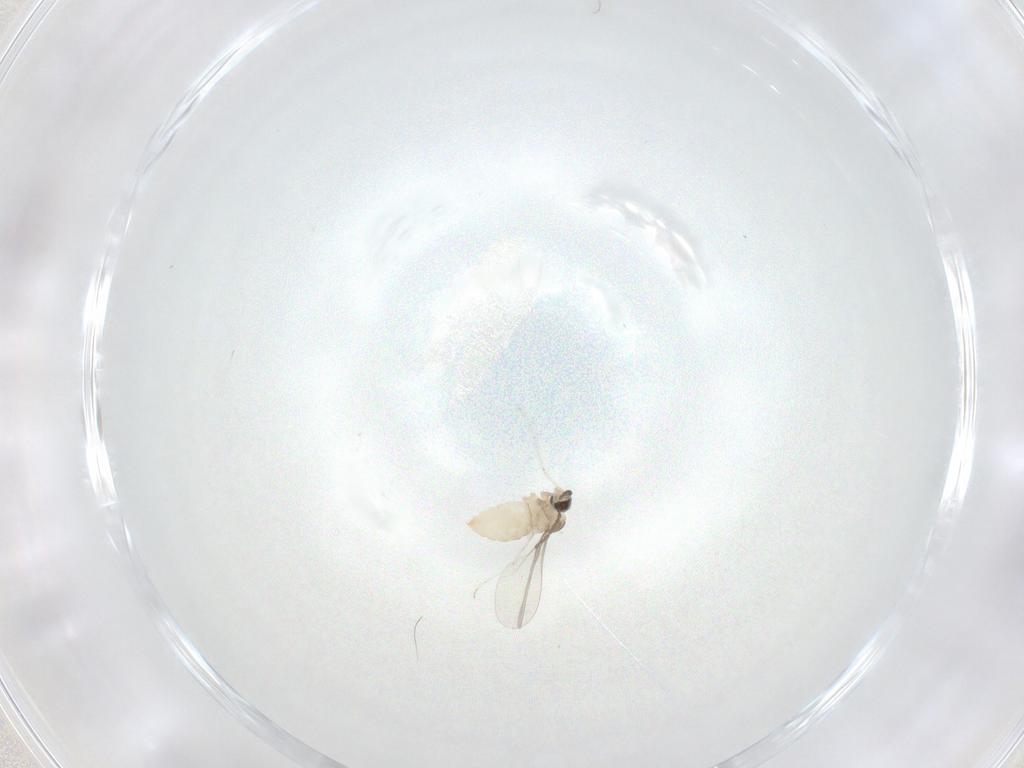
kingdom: Animalia
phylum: Arthropoda
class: Insecta
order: Diptera
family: Cecidomyiidae
